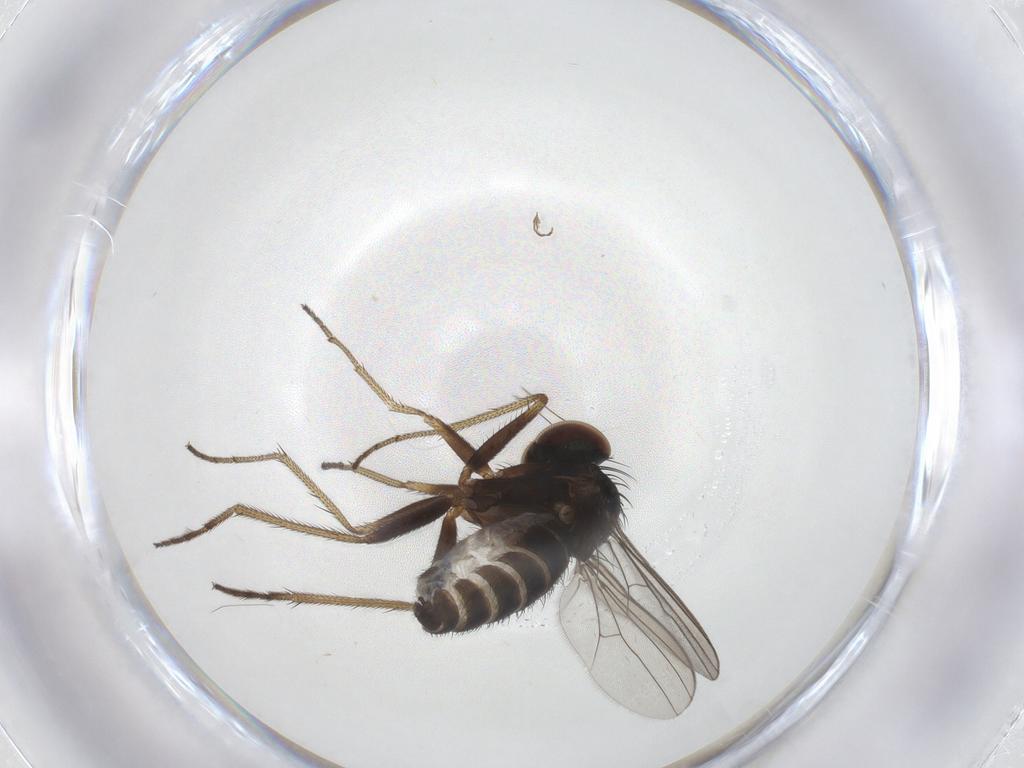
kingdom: Animalia
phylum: Arthropoda
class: Insecta
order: Diptera
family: Dolichopodidae
